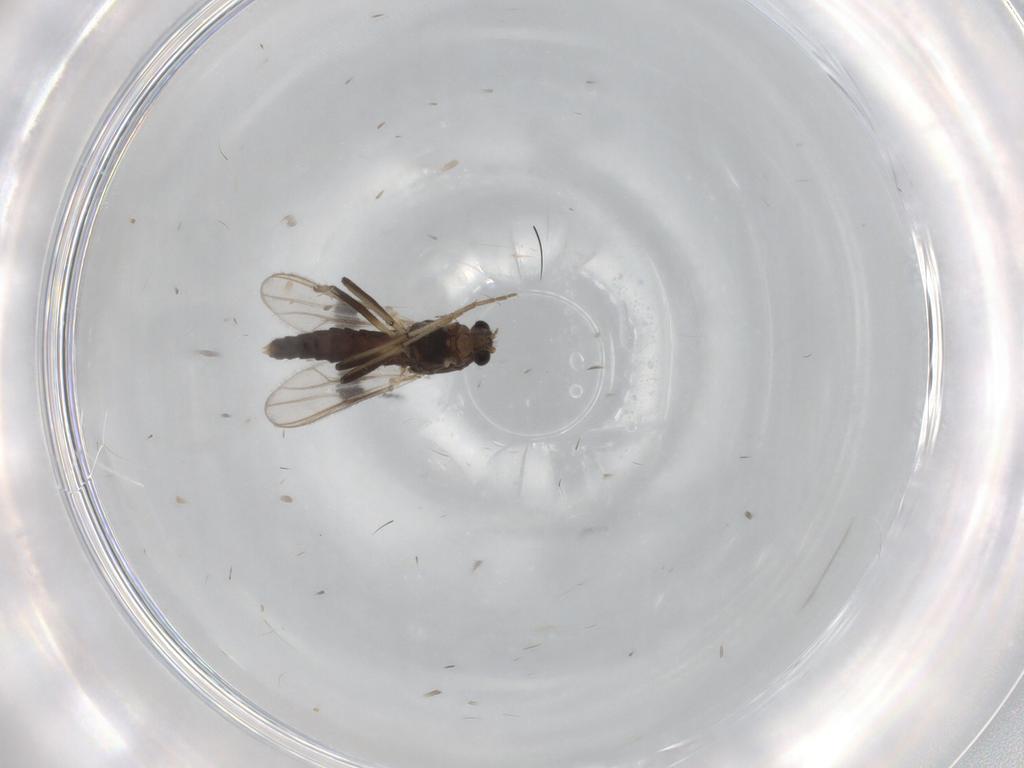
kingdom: Animalia
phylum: Arthropoda
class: Insecta
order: Diptera
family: Chironomidae
